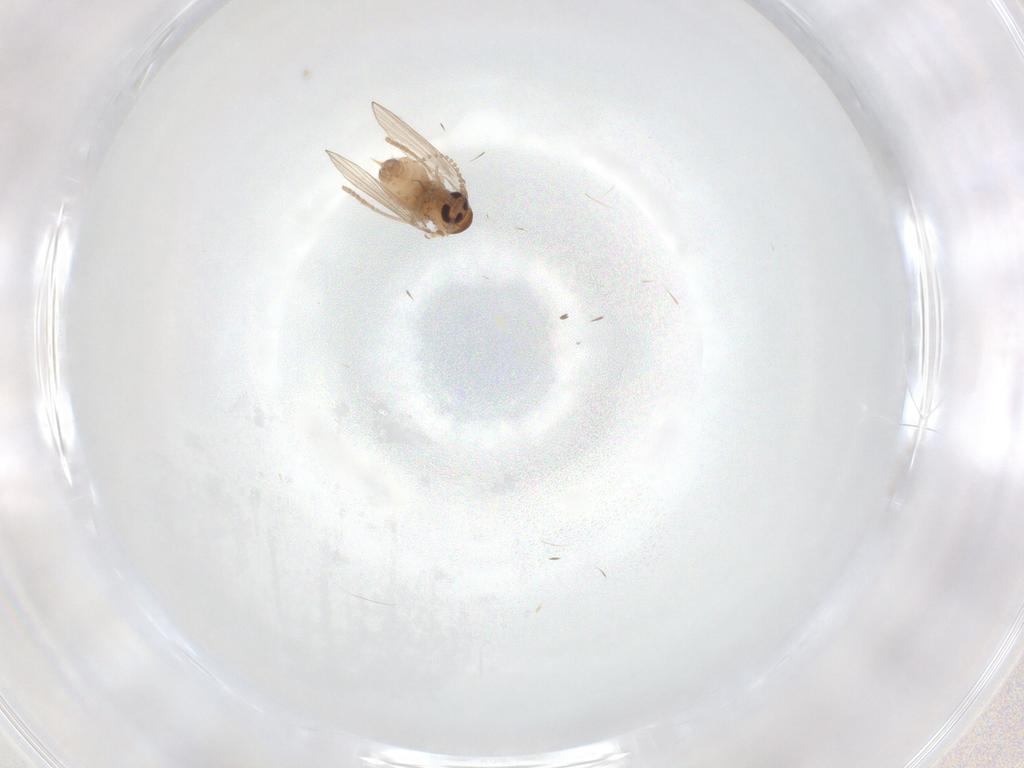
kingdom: Animalia
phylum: Arthropoda
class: Insecta
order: Diptera
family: Psychodidae
